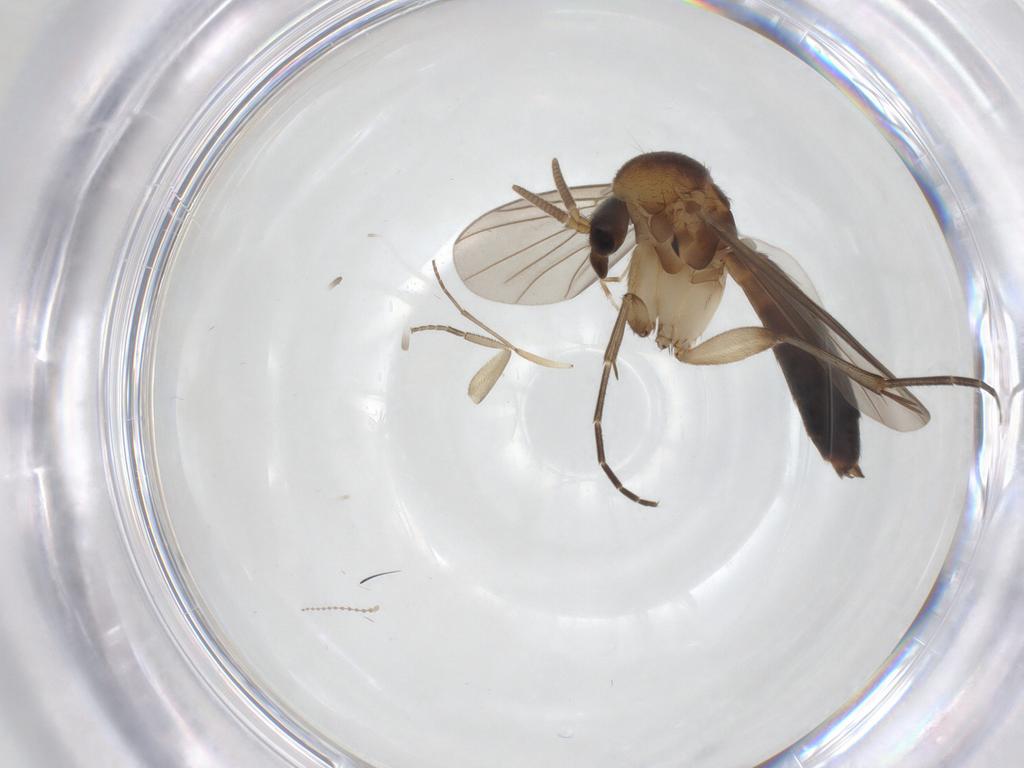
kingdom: Animalia
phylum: Arthropoda
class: Insecta
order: Diptera
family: Mycetophilidae
